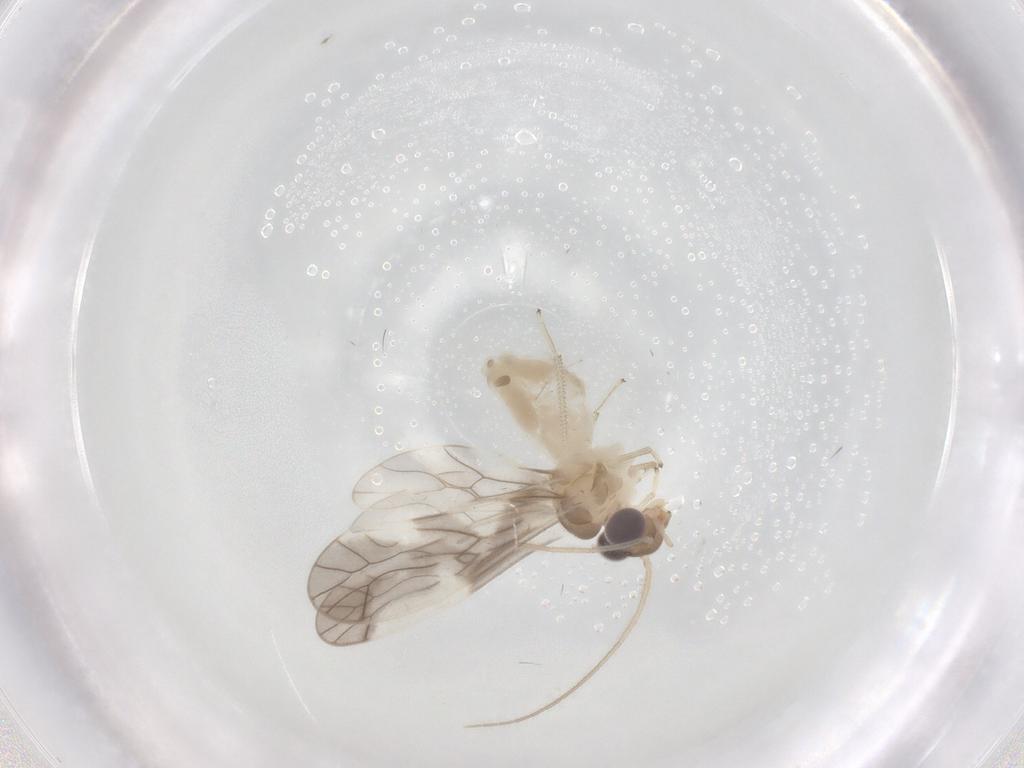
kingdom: Animalia
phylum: Arthropoda
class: Insecta
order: Psocodea
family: Caeciliusidae
